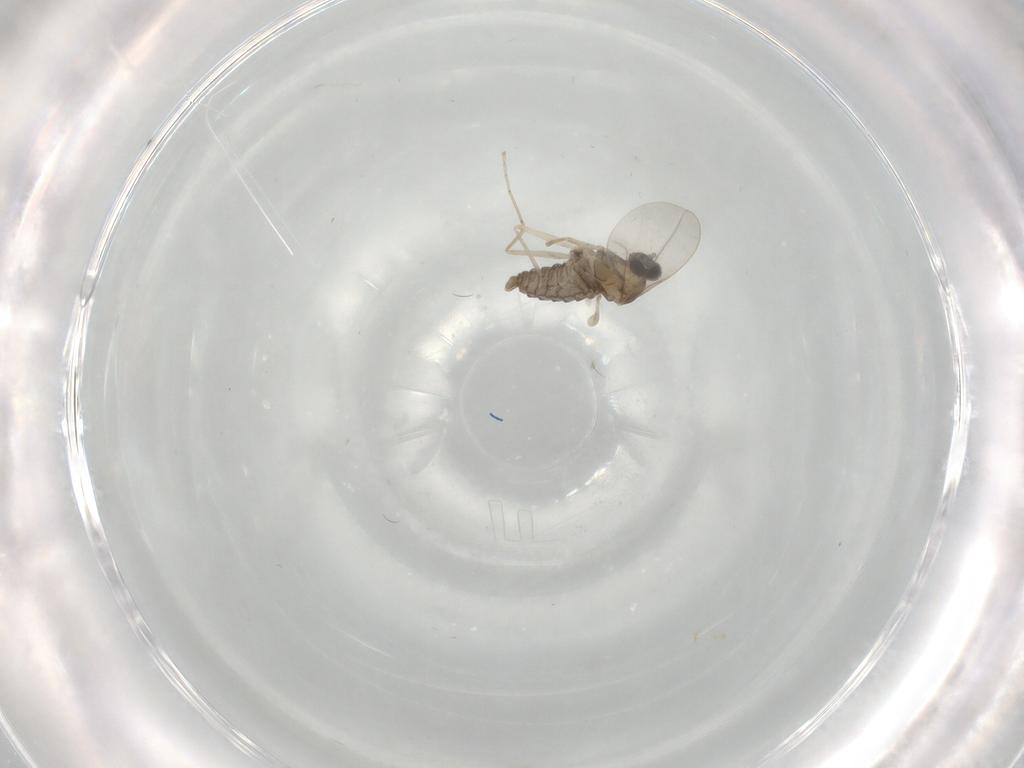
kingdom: Animalia
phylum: Arthropoda
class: Insecta
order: Diptera
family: Cecidomyiidae
